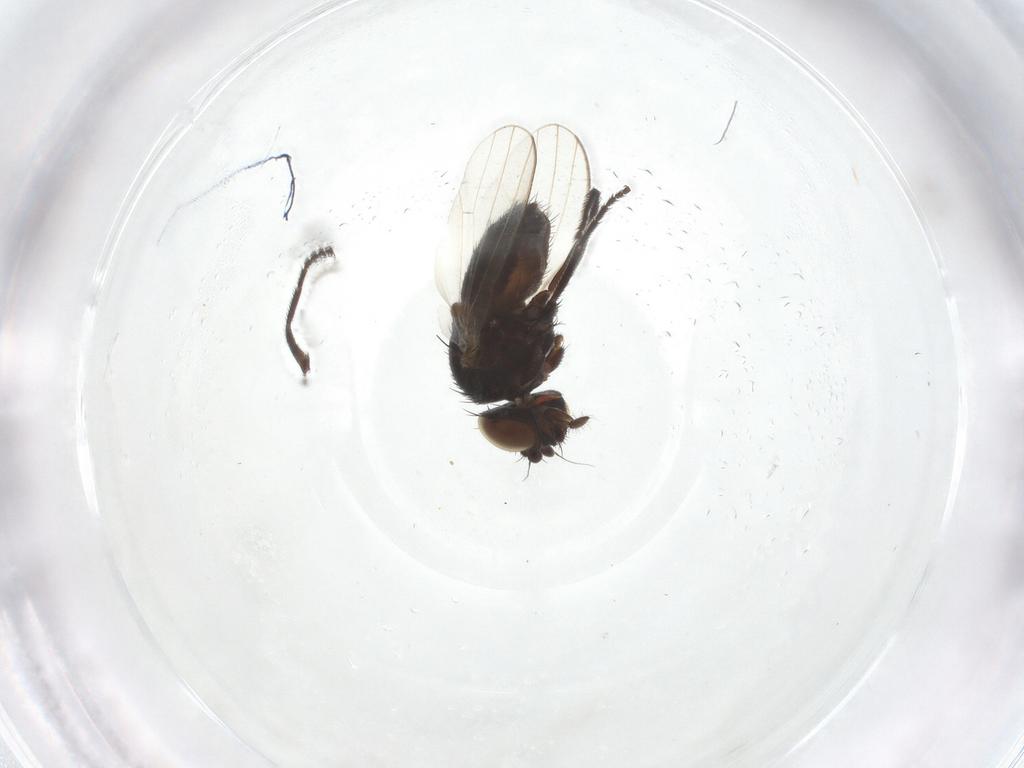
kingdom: Animalia
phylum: Arthropoda
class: Insecta
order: Diptera
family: Milichiidae
